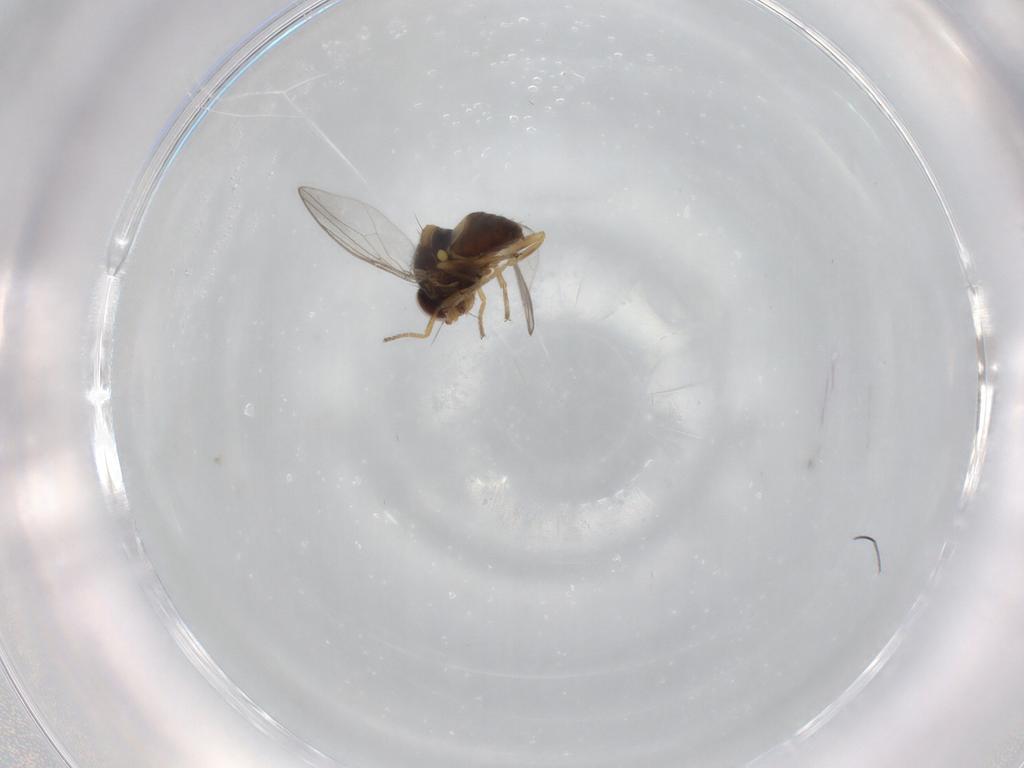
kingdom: Animalia
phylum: Arthropoda
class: Insecta
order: Diptera
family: Chloropidae
